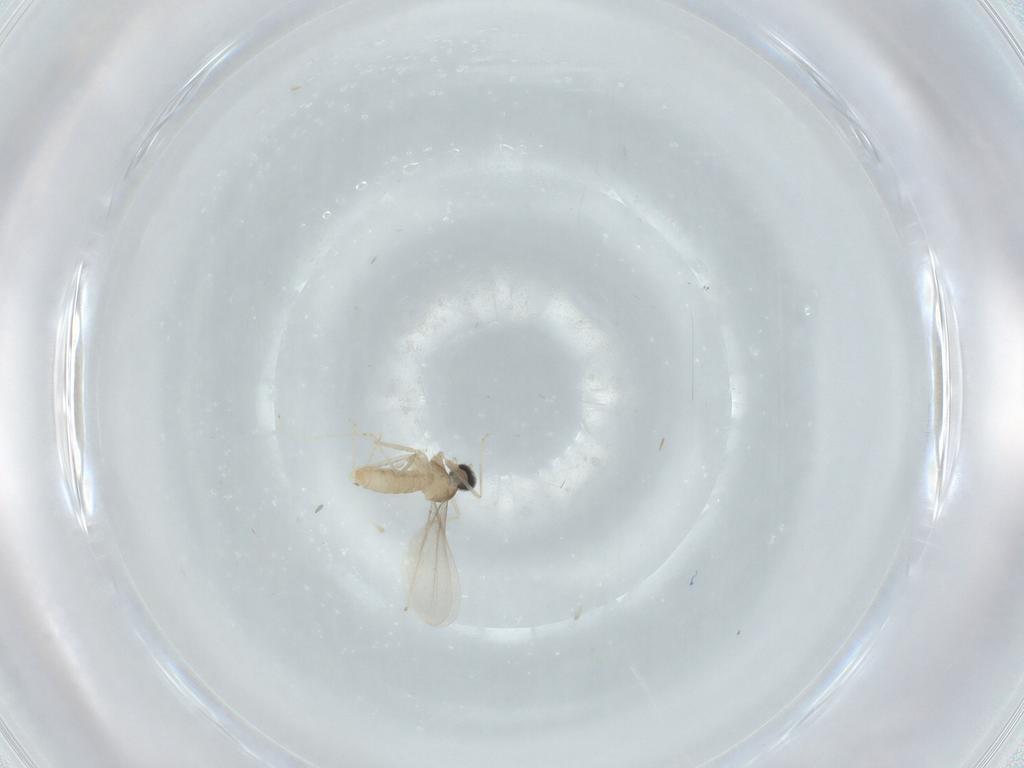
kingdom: Animalia
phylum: Arthropoda
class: Insecta
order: Diptera
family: Cecidomyiidae
